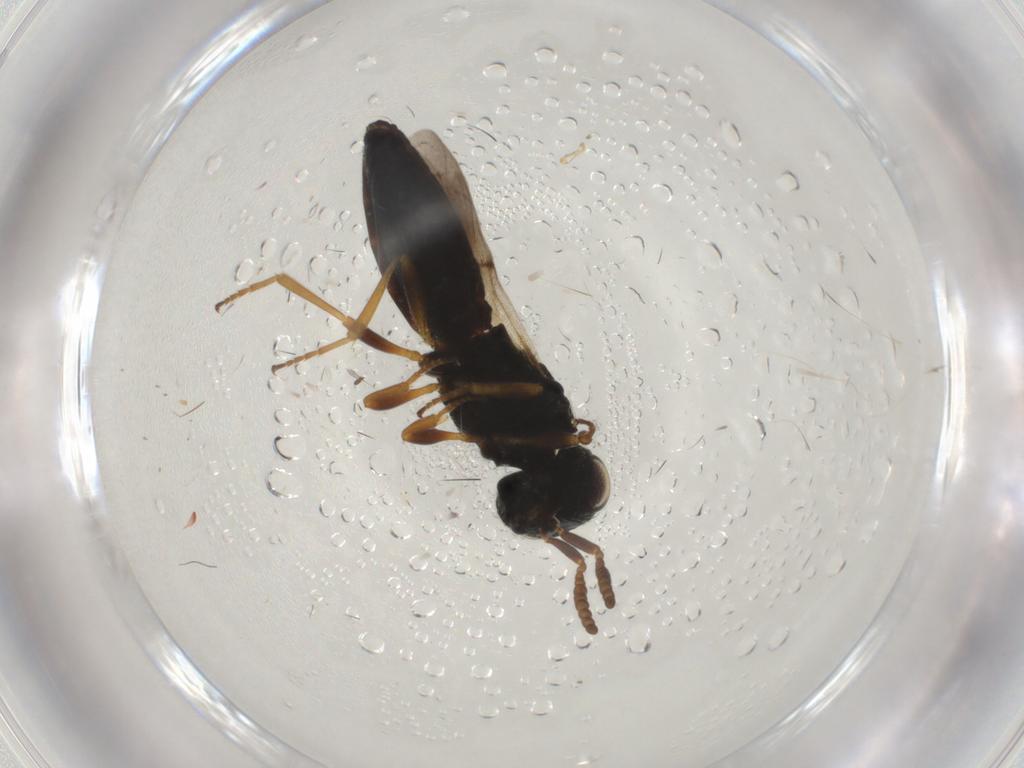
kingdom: Animalia
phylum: Arthropoda
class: Insecta
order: Hymenoptera
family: Scelionidae
